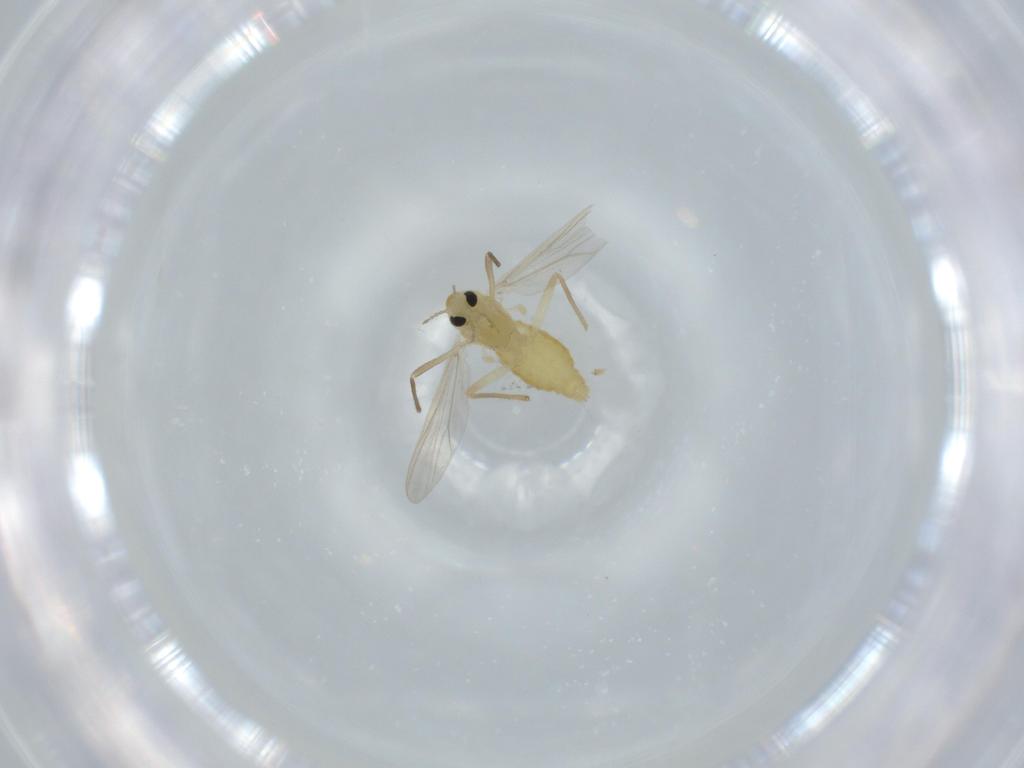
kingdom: Animalia
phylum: Arthropoda
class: Insecta
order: Diptera
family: Chironomidae
